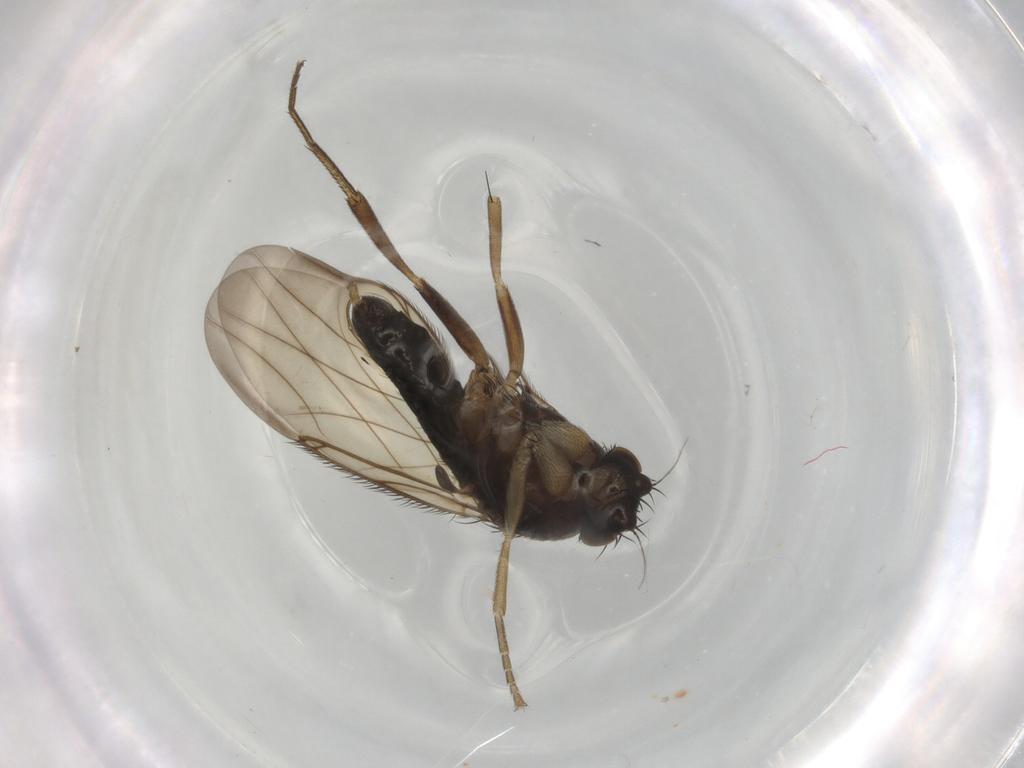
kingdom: Animalia
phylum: Arthropoda
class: Insecta
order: Diptera
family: Phoridae
